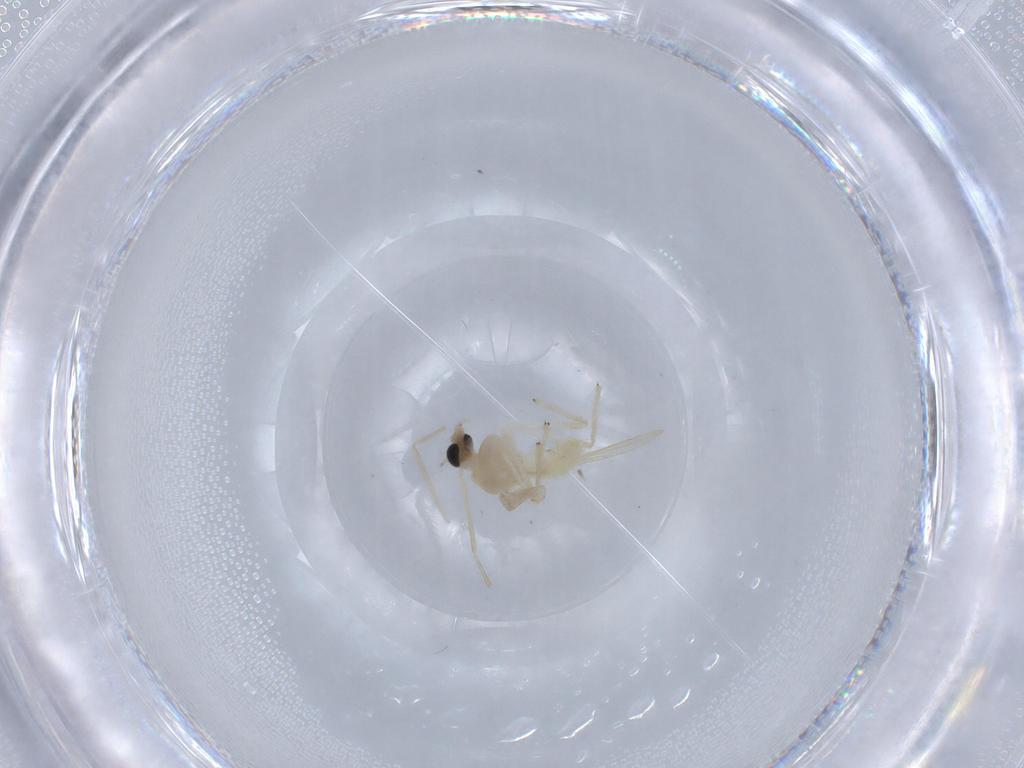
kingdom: Animalia
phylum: Arthropoda
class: Insecta
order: Diptera
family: Chironomidae
